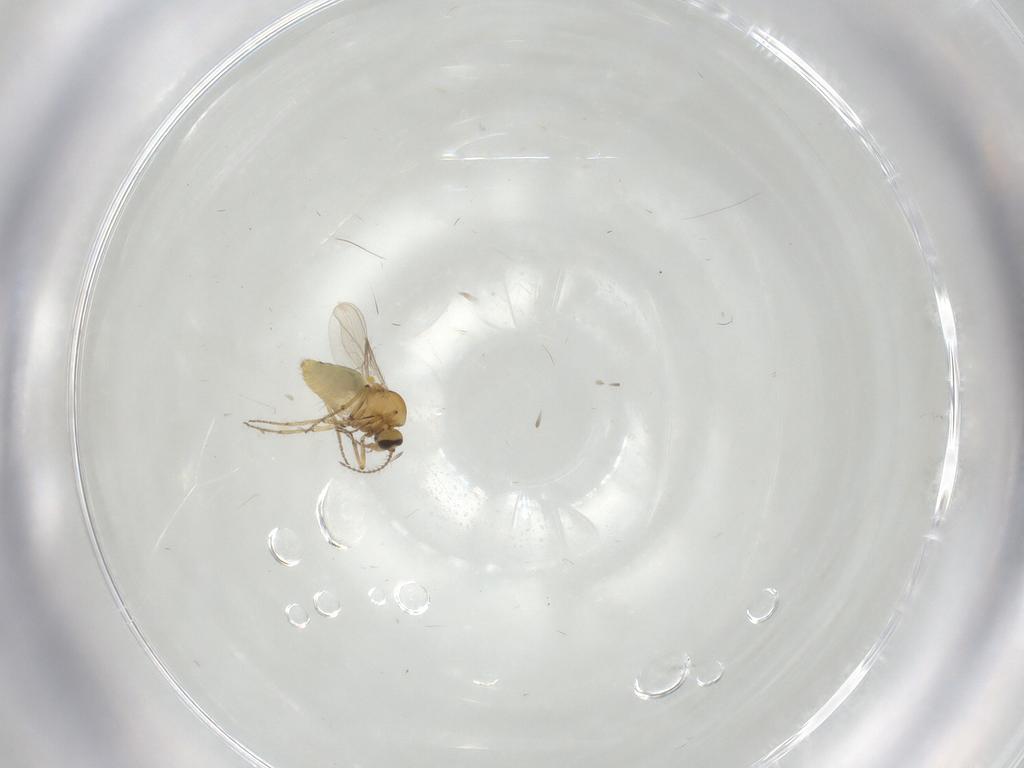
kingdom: Animalia
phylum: Arthropoda
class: Insecta
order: Diptera
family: Ceratopogonidae
